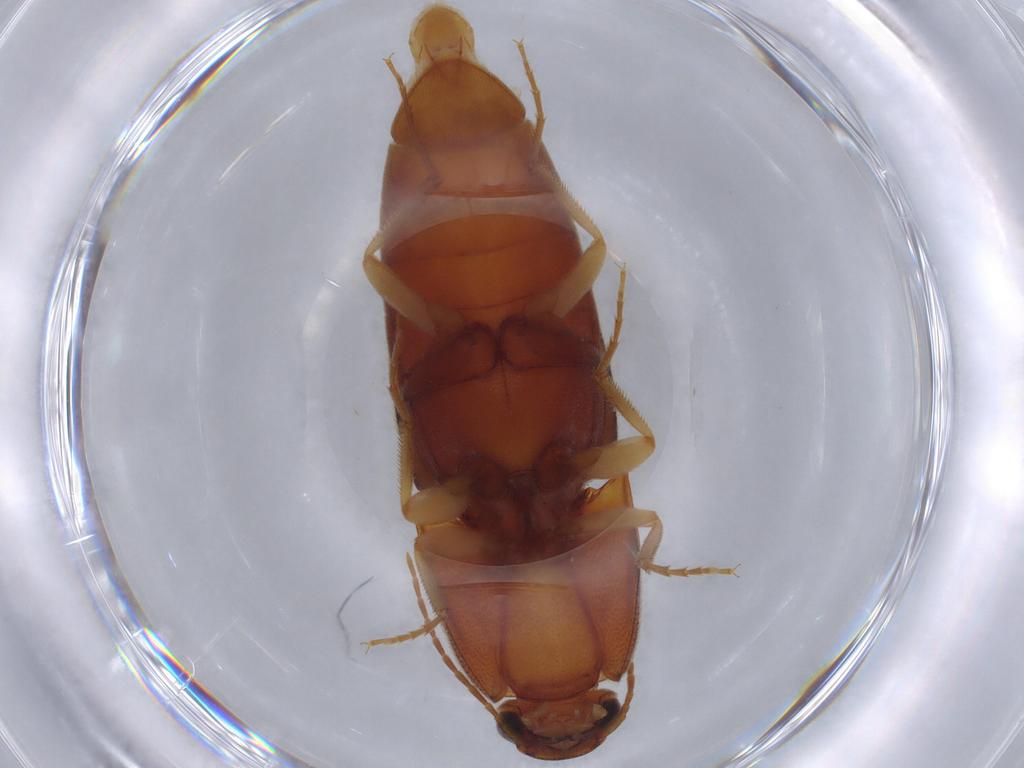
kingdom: Animalia
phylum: Arthropoda
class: Insecta
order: Coleoptera
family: Elateridae
